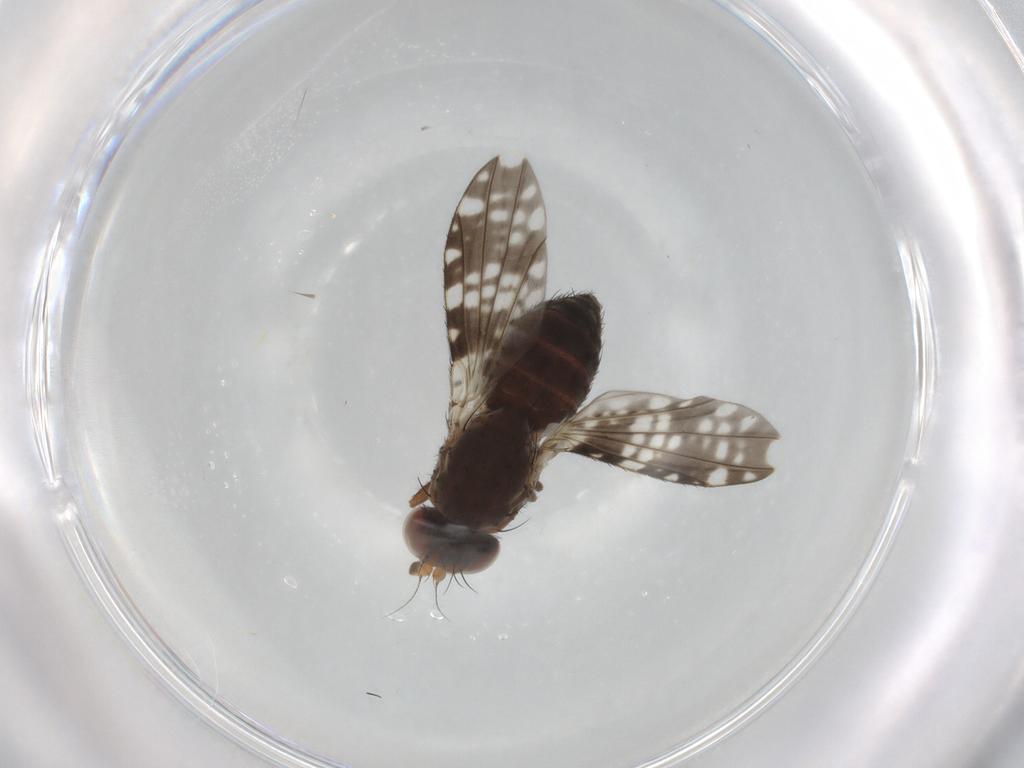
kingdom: Animalia
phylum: Arthropoda
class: Insecta
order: Diptera
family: Heleomyzidae
